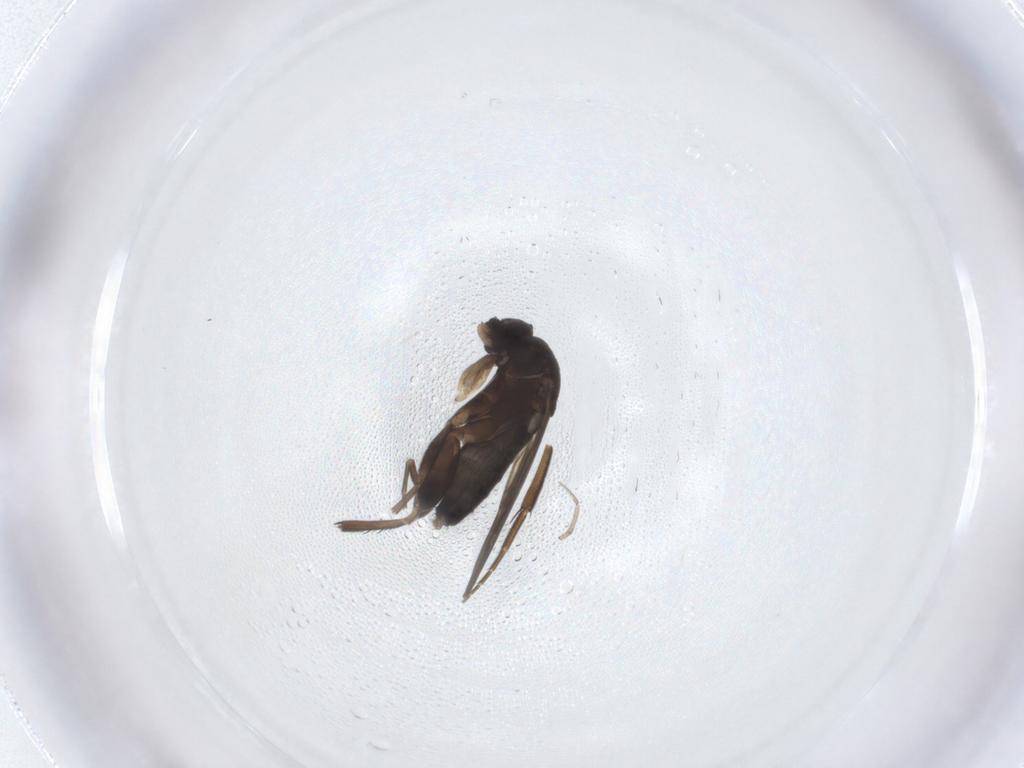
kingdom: Animalia
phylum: Arthropoda
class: Insecta
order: Diptera
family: Phoridae
